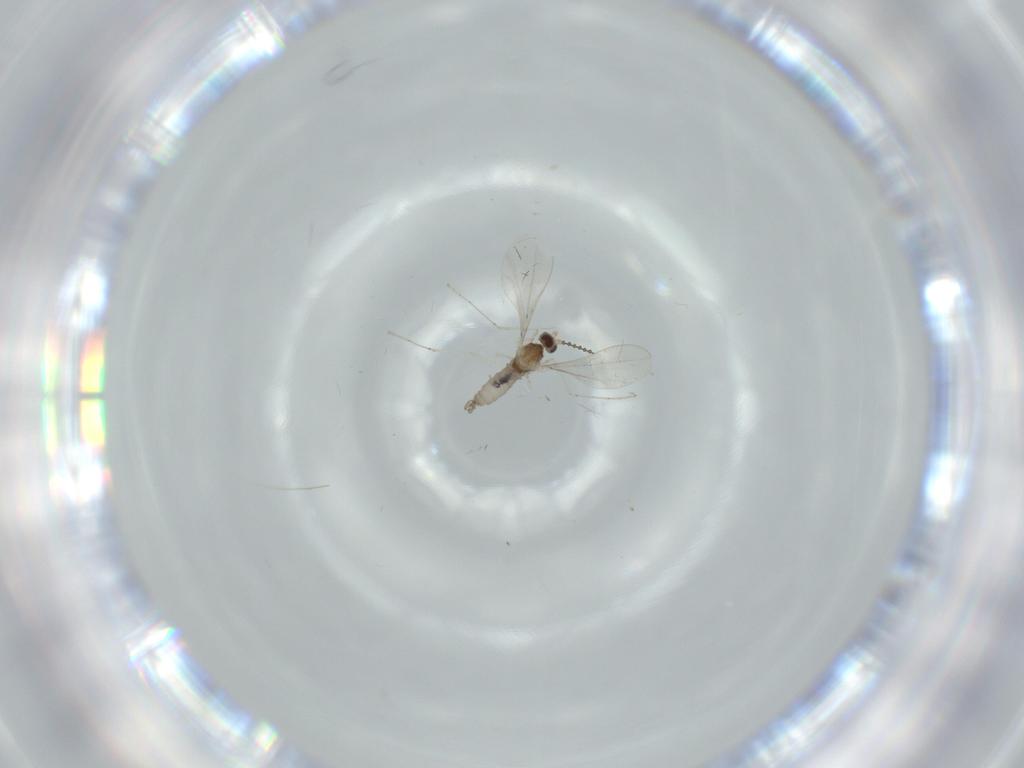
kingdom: Animalia
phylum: Arthropoda
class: Insecta
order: Diptera
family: Cecidomyiidae
